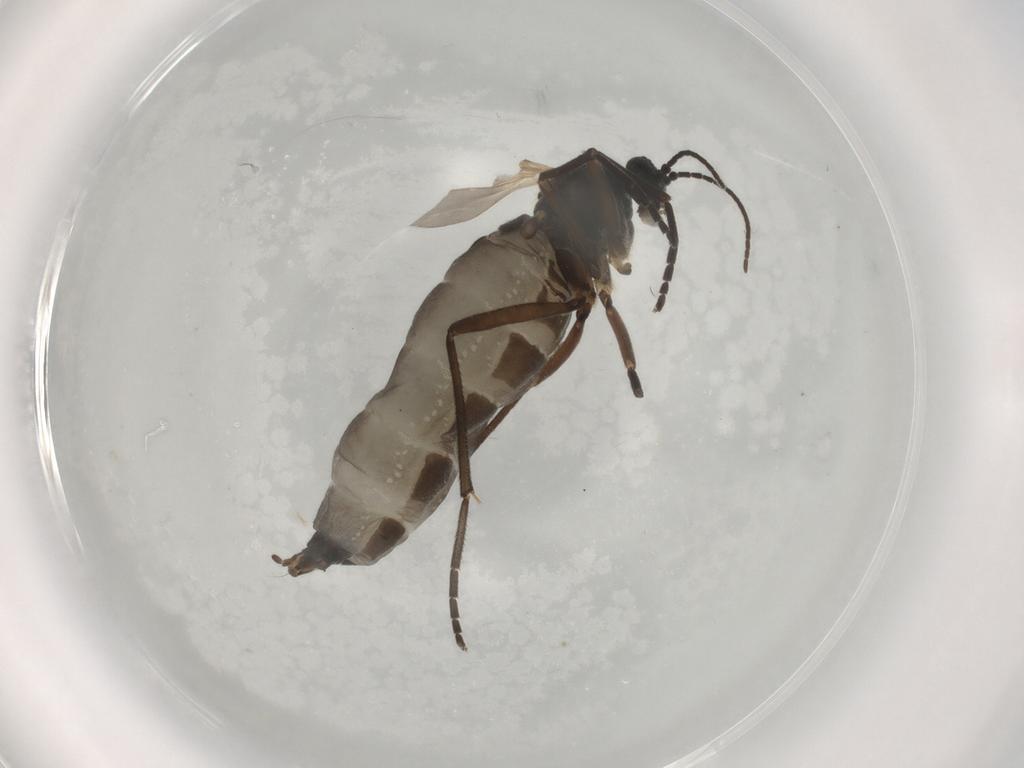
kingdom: Animalia
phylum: Arthropoda
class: Insecta
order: Diptera
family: Sciaridae
